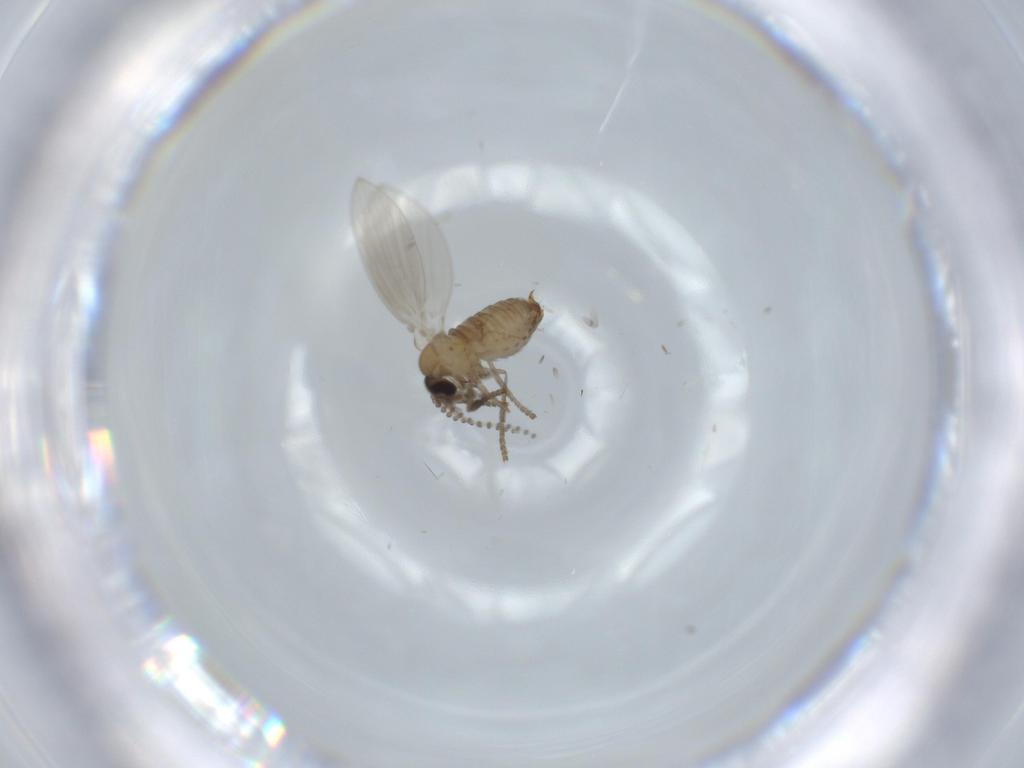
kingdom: Animalia
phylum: Arthropoda
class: Insecta
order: Diptera
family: Psychodidae
